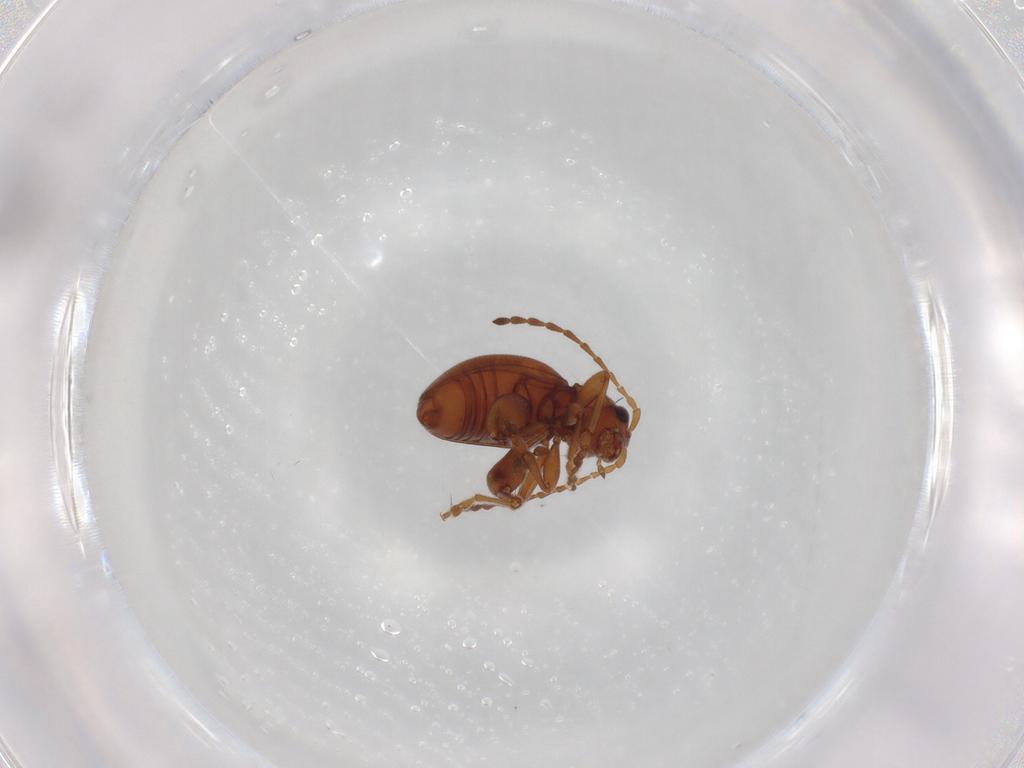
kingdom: Animalia
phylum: Arthropoda
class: Insecta
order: Coleoptera
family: Chrysomelidae
